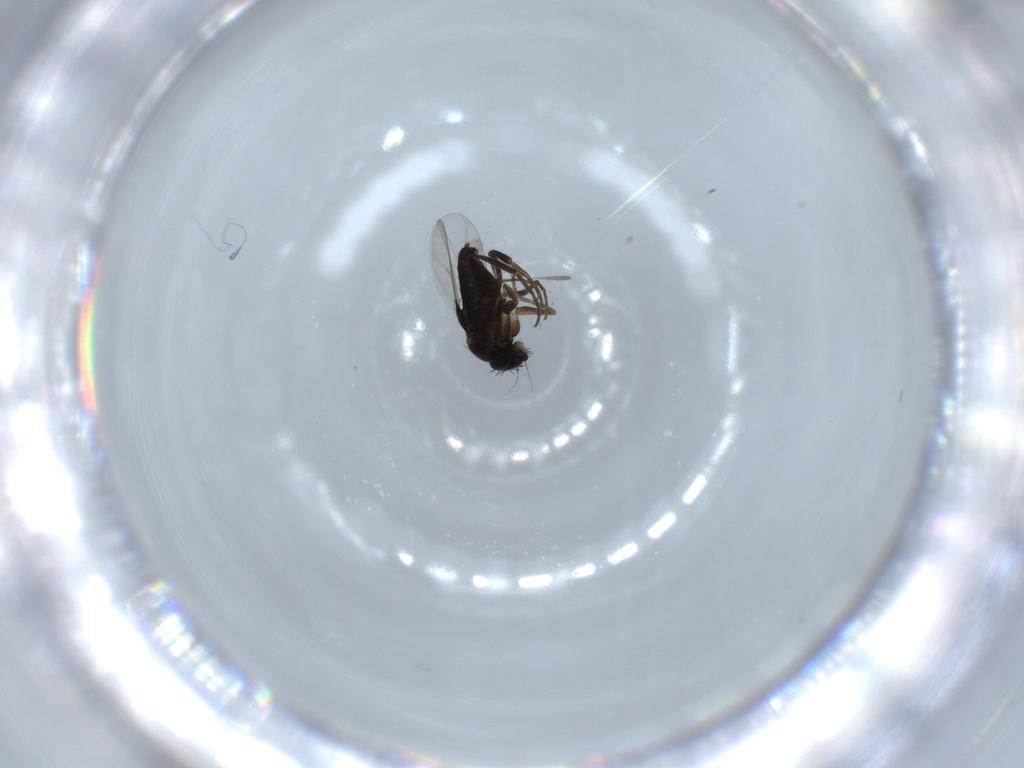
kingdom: Animalia
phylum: Arthropoda
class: Insecta
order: Diptera
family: Phoridae
